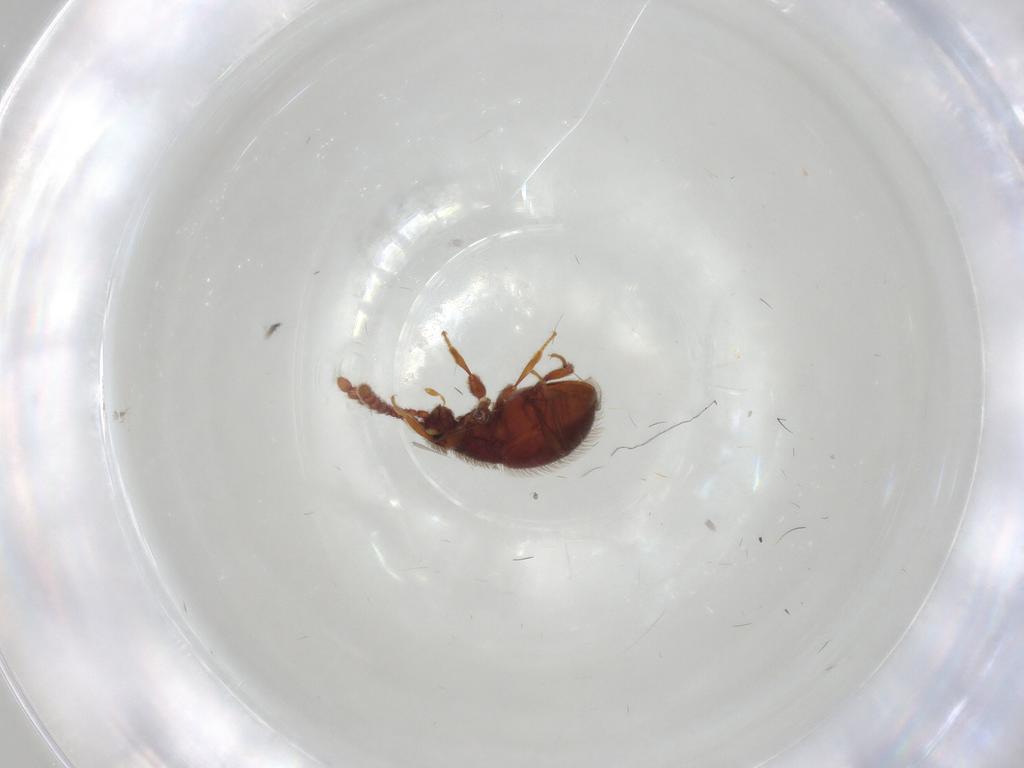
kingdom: Animalia
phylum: Arthropoda
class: Insecta
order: Coleoptera
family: Staphylinidae
